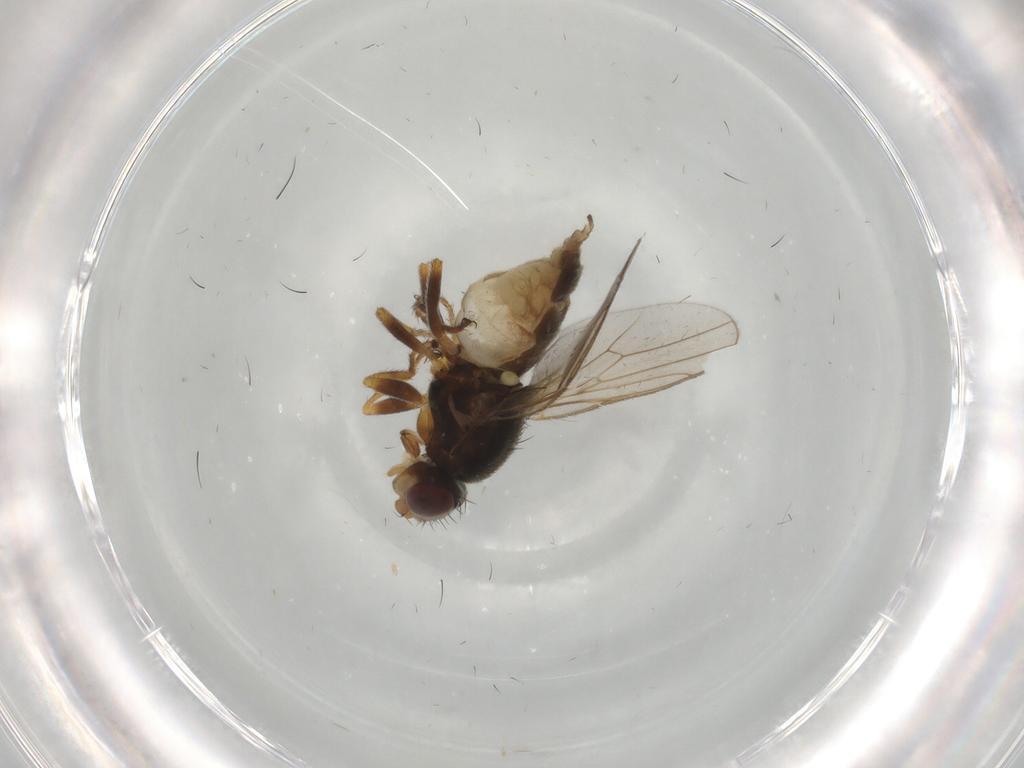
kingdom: Animalia
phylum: Arthropoda
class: Insecta
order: Diptera
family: Chloropidae
